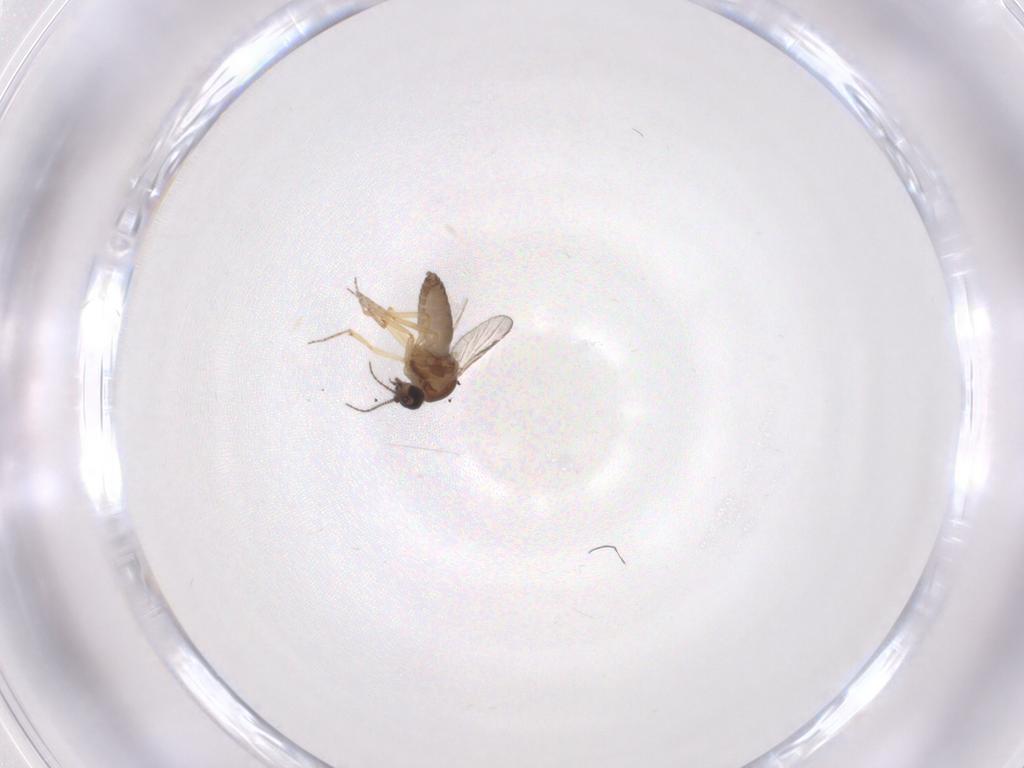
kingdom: Animalia
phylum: Arthropoda
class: Insecta
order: Diptera
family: Ceratopogonidae
